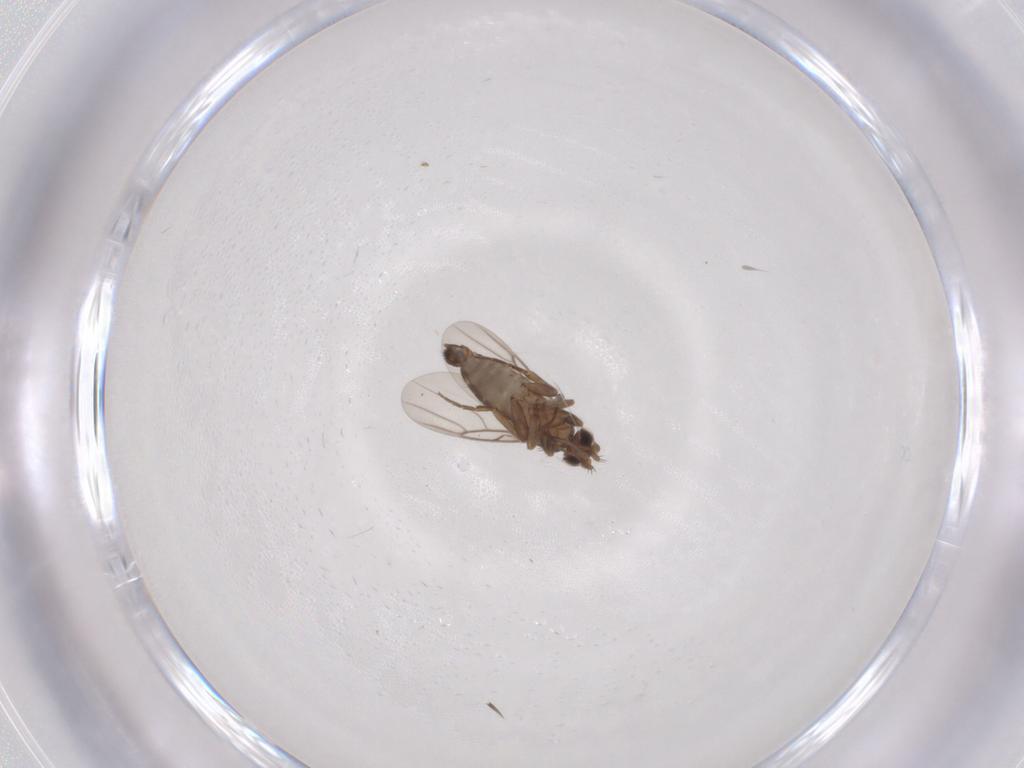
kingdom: Animalia
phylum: Arthropoda
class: Insecta
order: Diptera
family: Phoridae
